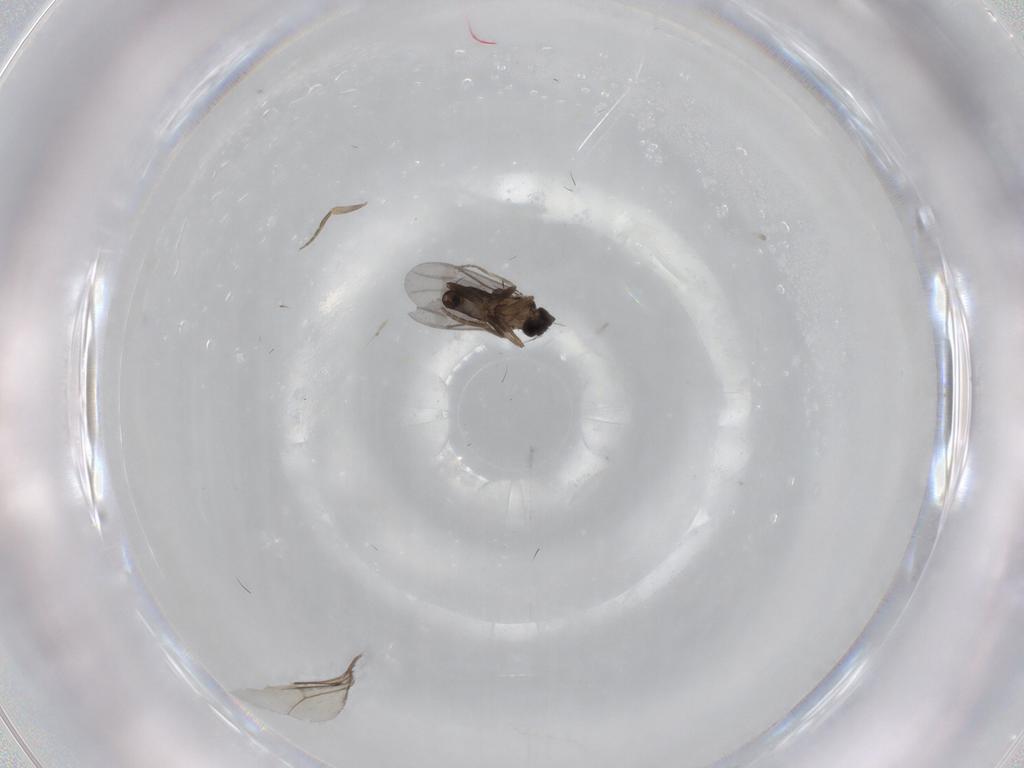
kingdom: Animalia
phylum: Arthropoda
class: Insecta
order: Diptera
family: Dolichopodidae
